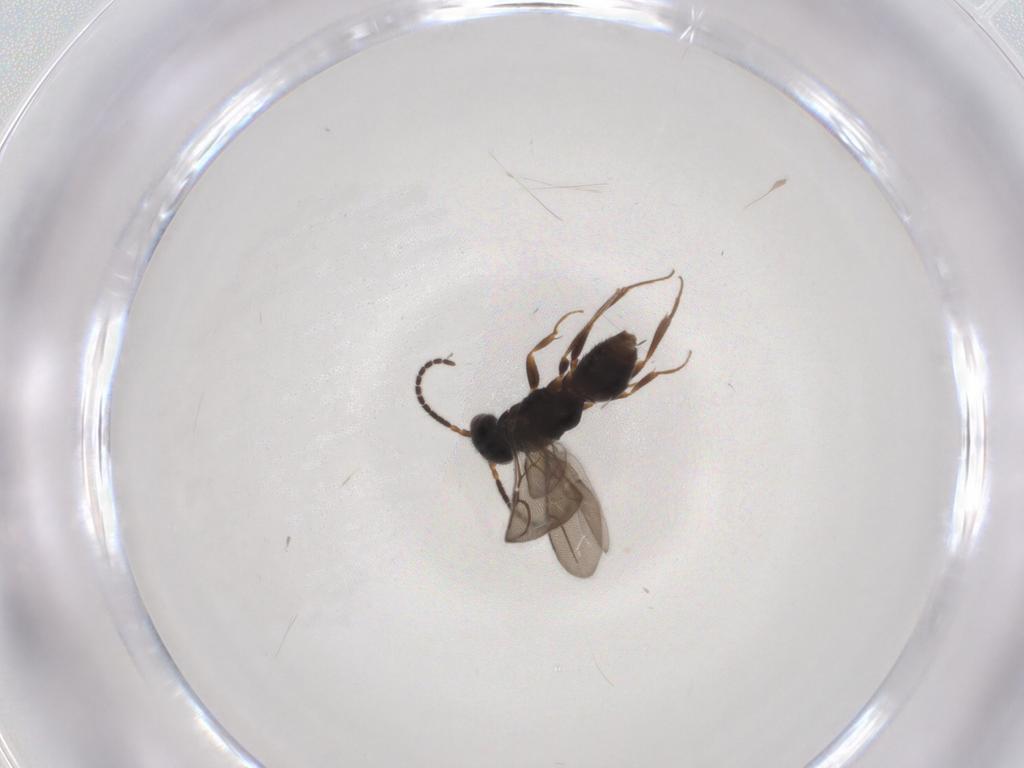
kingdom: Animalia
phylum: Arthropoda
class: Insecta
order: Hymenoptera
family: Bethylidae
